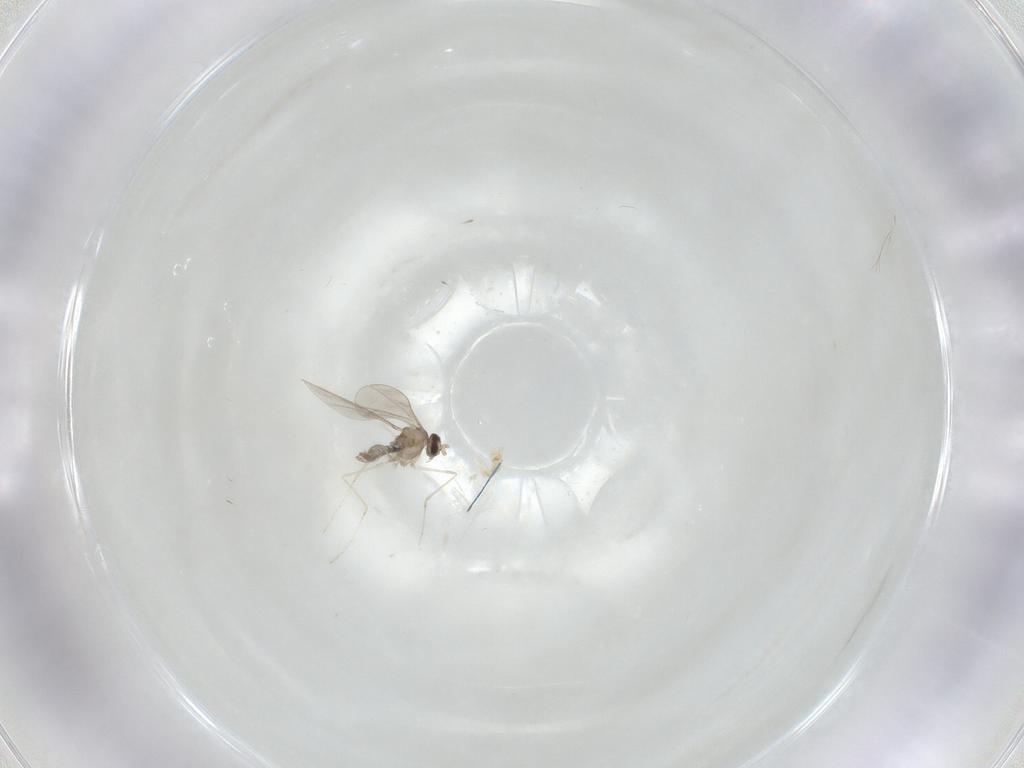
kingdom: Animalia
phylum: Arthropoda
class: Insecta
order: Diptera
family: Cecidomyiidae
